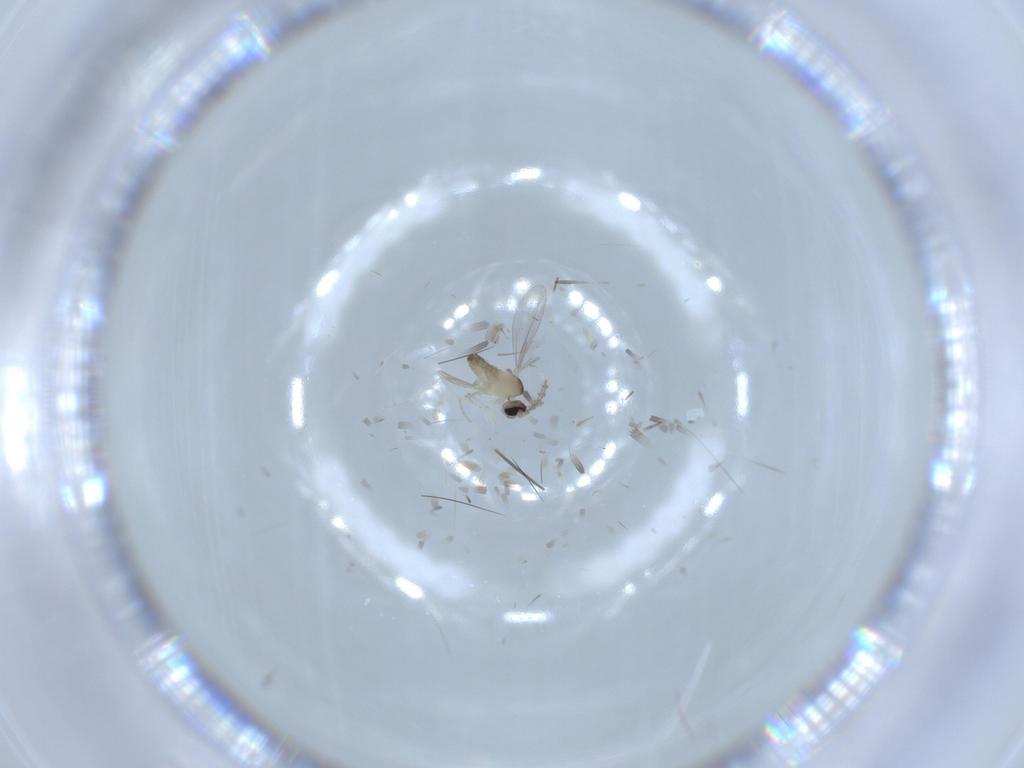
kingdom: Animalia
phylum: Arthropoda
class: Insecta
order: Diptera
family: Cecidomyiidae
